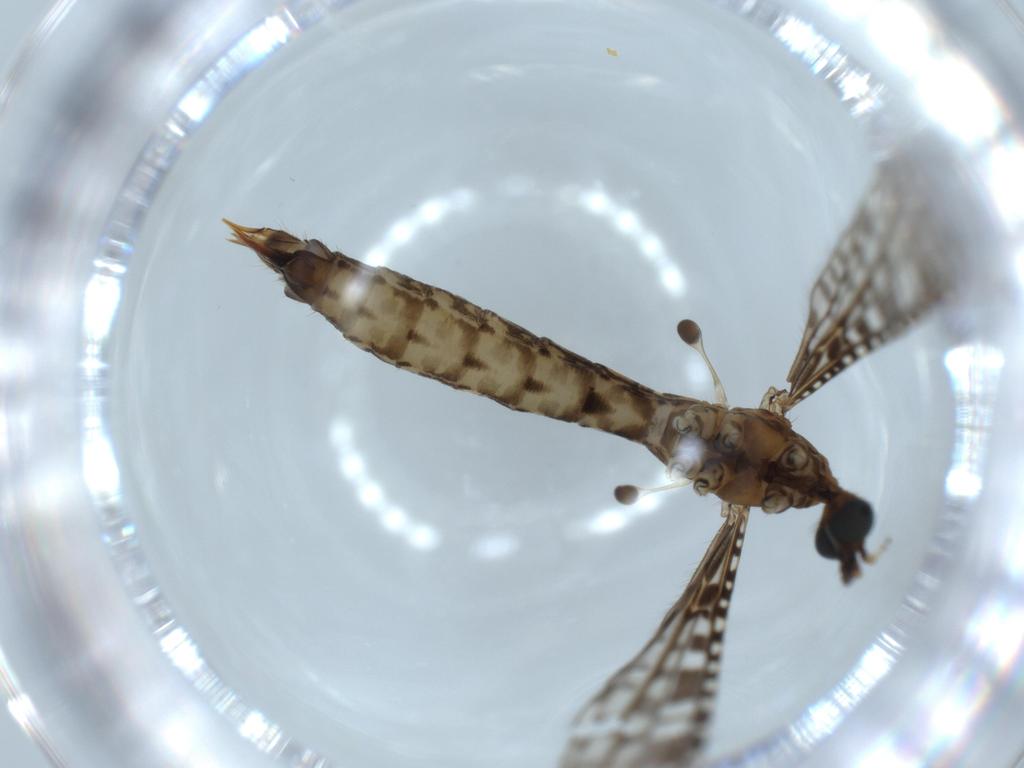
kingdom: Animalia
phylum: Arthropoda
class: Insecta
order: Diptera
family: Limoniidae
